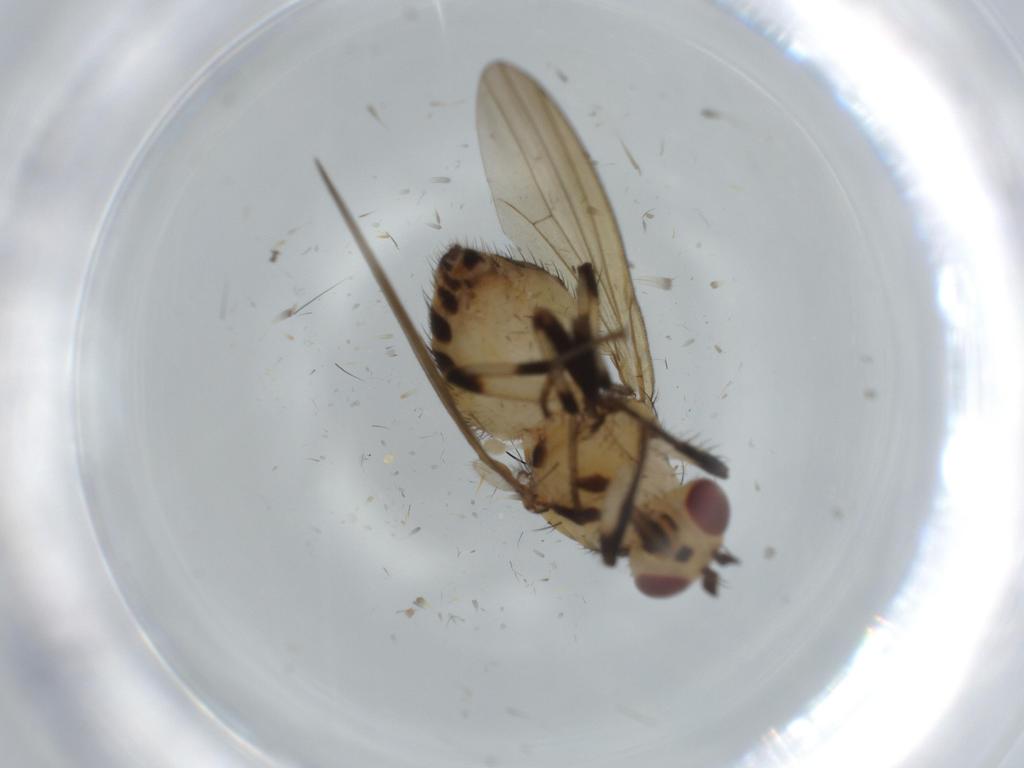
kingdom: Animalia
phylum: Arthropoda
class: Insecta
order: Diptera
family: Lauxaniidae
